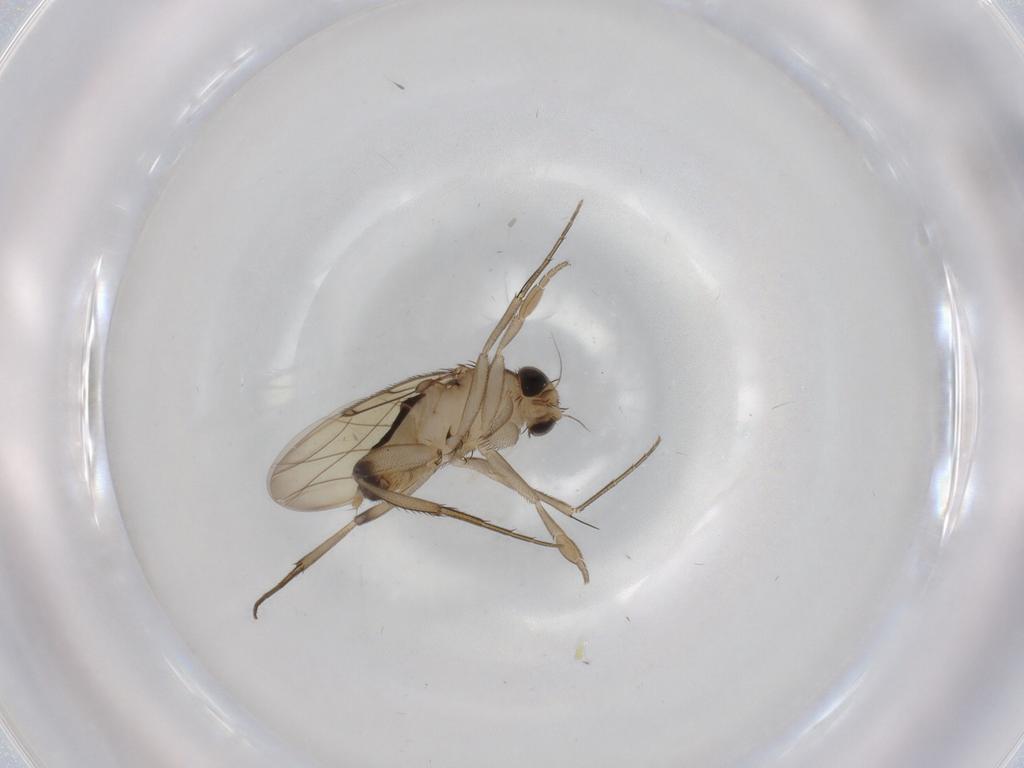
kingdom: Animalia
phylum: Arthropoda
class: Insecta
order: Diptera
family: Phoridae
